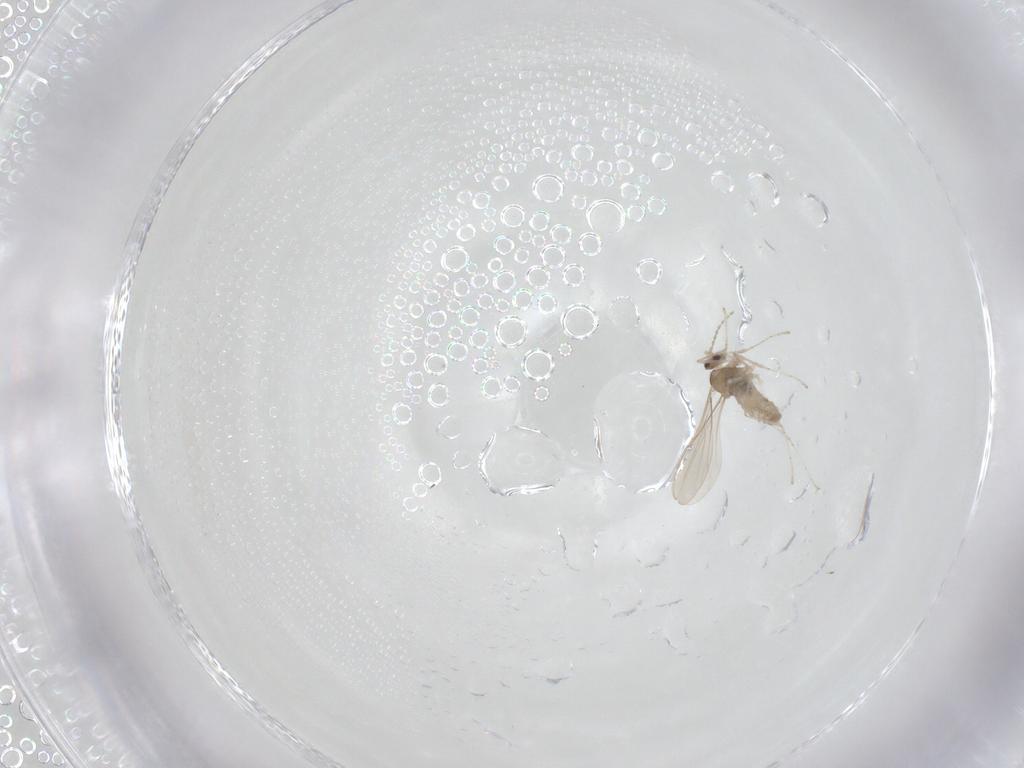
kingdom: Animalia
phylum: Arthropoda
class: Insecta
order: Diptera
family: Cecidomyiidae
